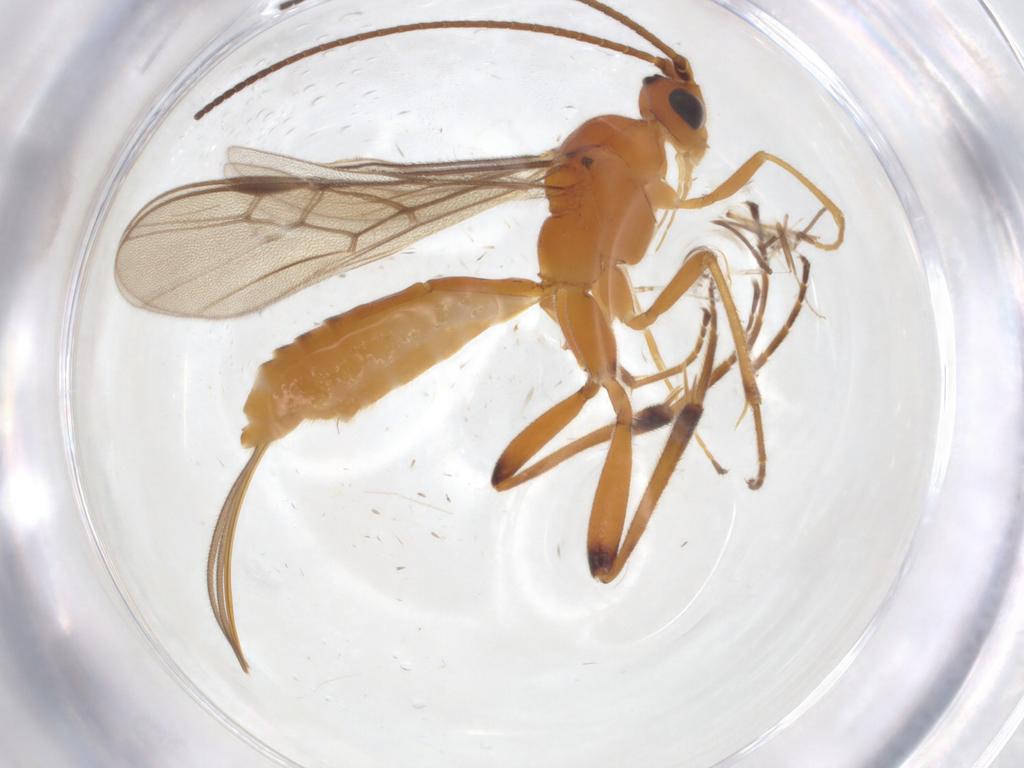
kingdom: Animalia
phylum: Arthropoda
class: Insecta
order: Hymenoptera
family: Braconidae
